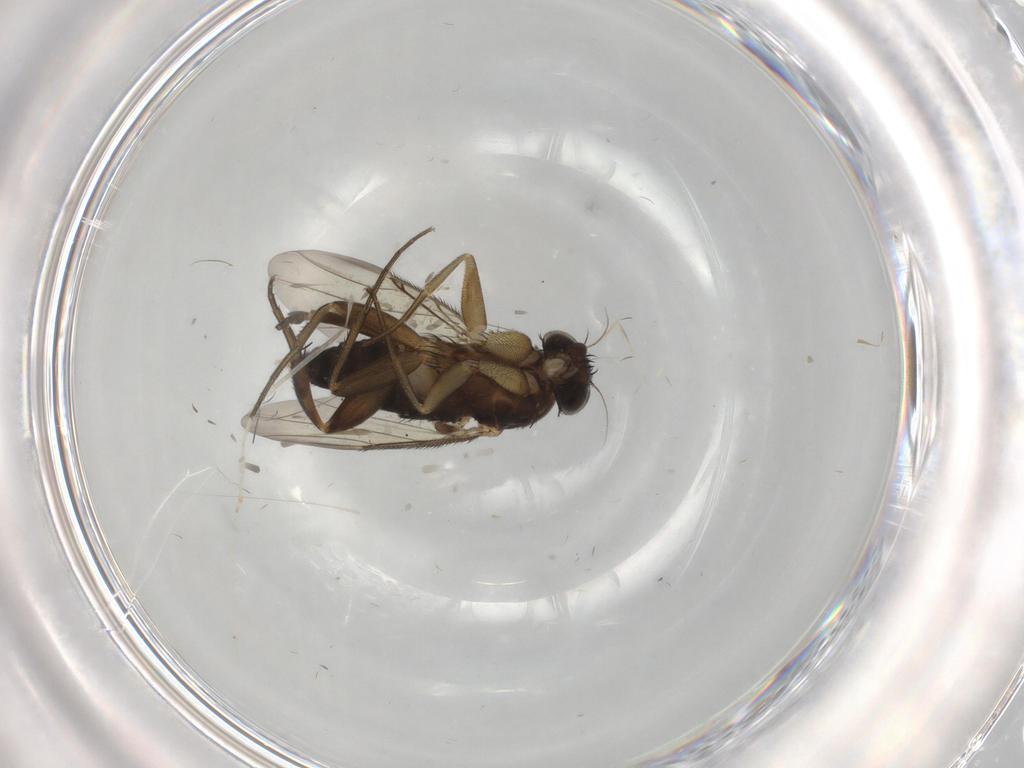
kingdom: Animalia
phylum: Arthropoda
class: Insecta
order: Diptera
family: Phoridae
